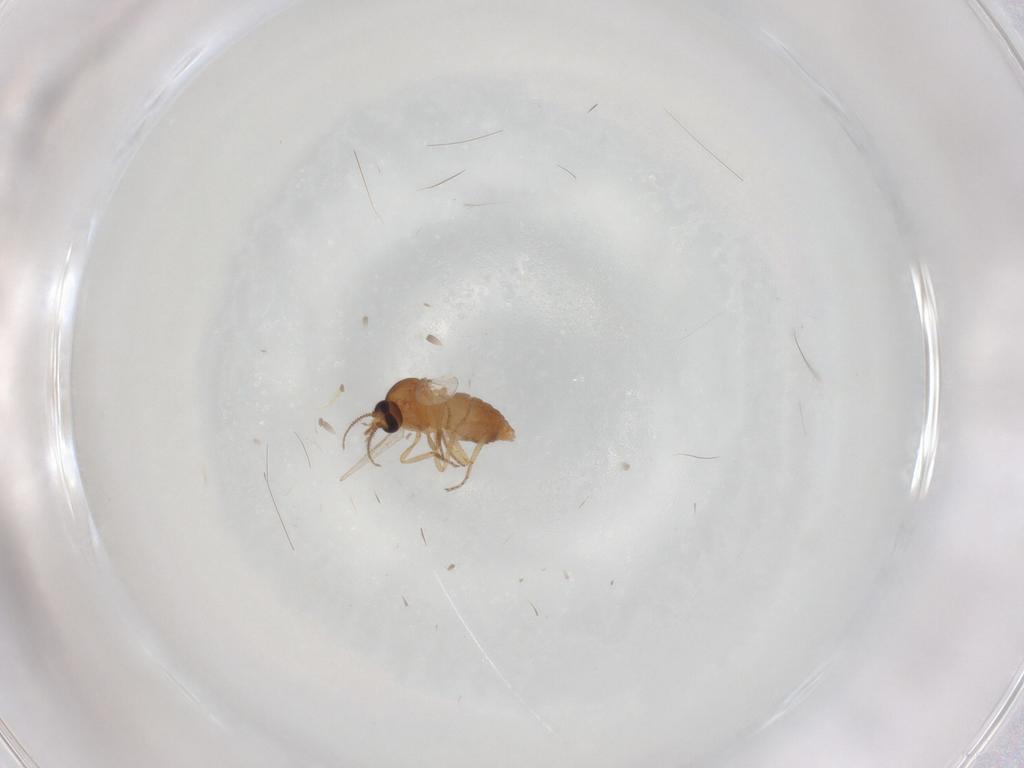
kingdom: Animalia
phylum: Arthropoda
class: Insecta
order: Diptera
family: Ceratopogonidae
